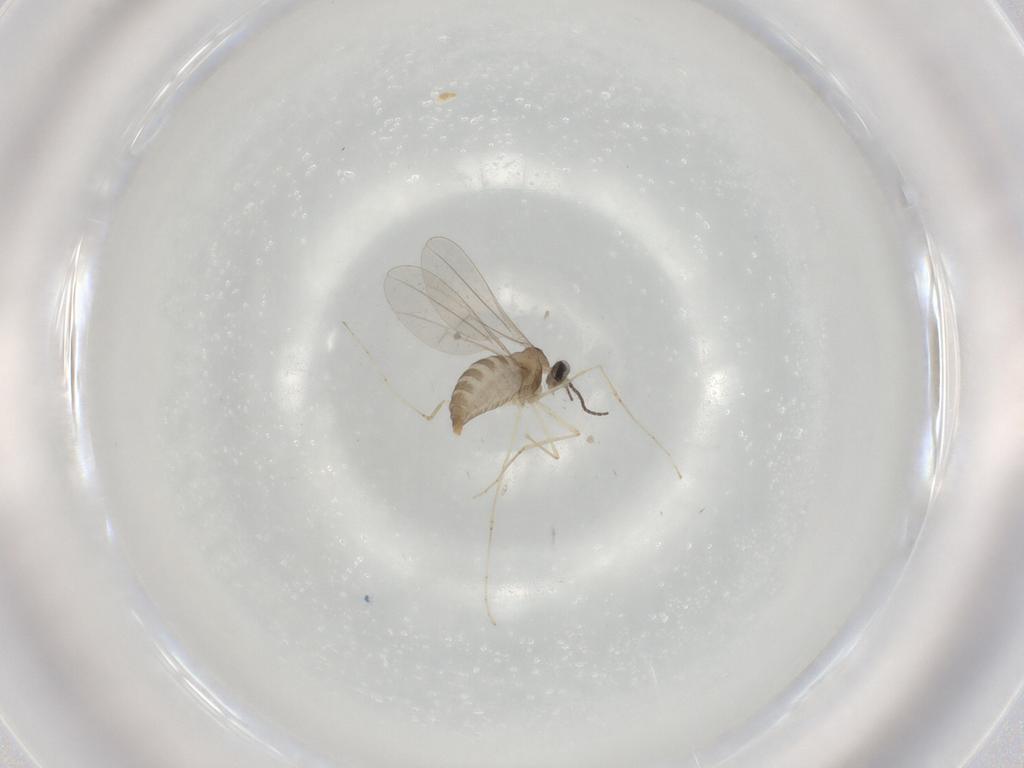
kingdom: Animalia
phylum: Arthropoda
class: Insecta
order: Diptera
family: Cecidomyiidae
